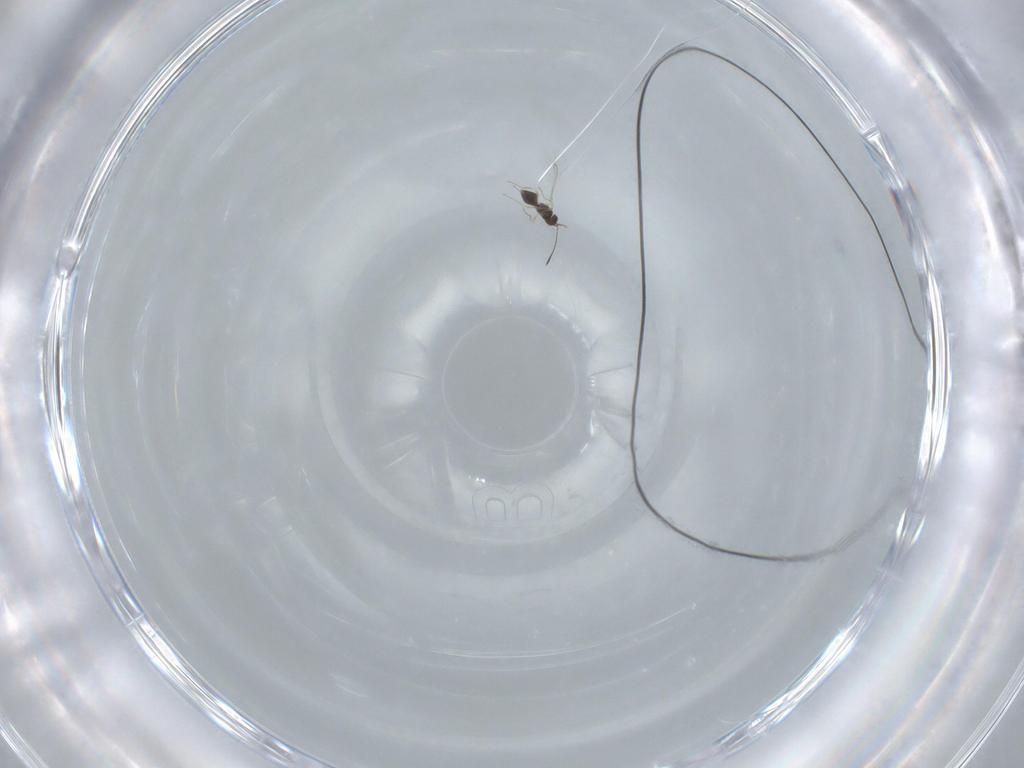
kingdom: Animalia
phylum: Arthropoda
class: Insecta
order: Hymenoptera
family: Mymaridae
